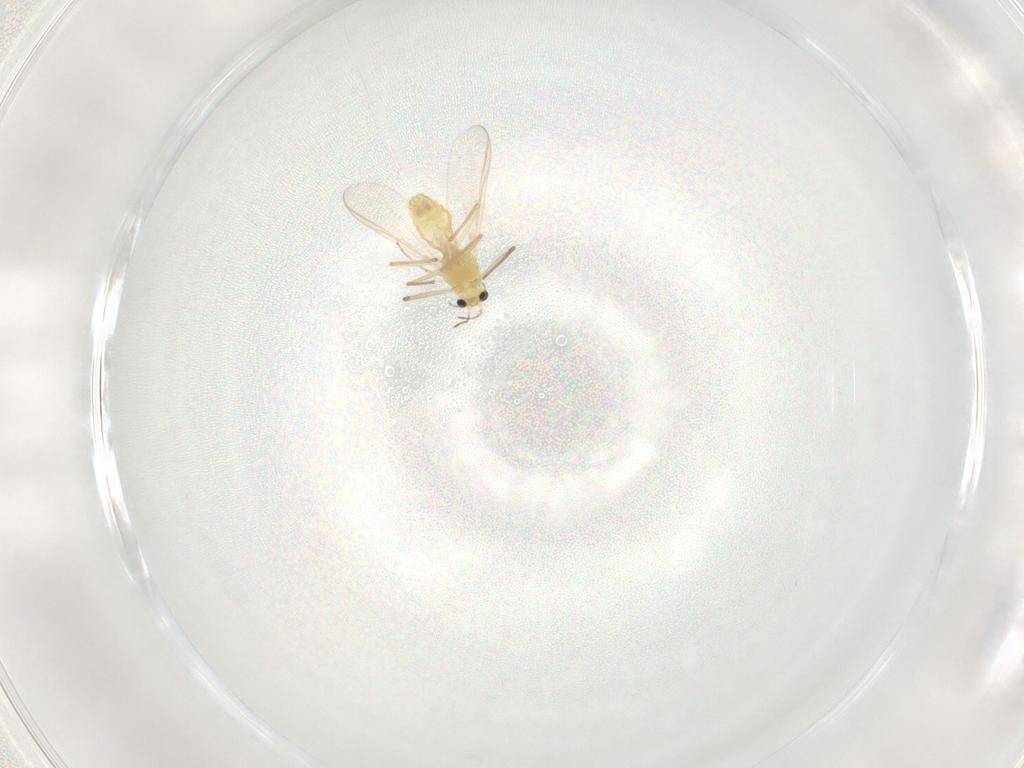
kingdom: Animalia
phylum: Arthropoda
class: Insecta
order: Diptera
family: Chironomidae
